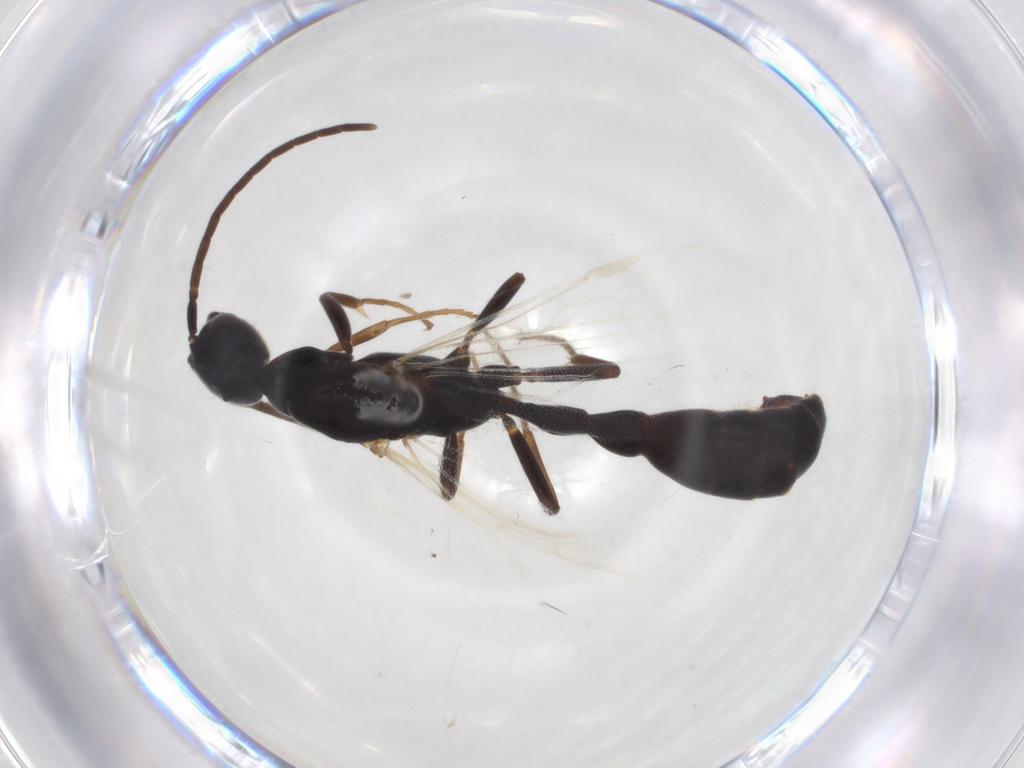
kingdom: Animalia
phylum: Arthropoda
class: Insecta
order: Hymenoptera
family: Formicidae
